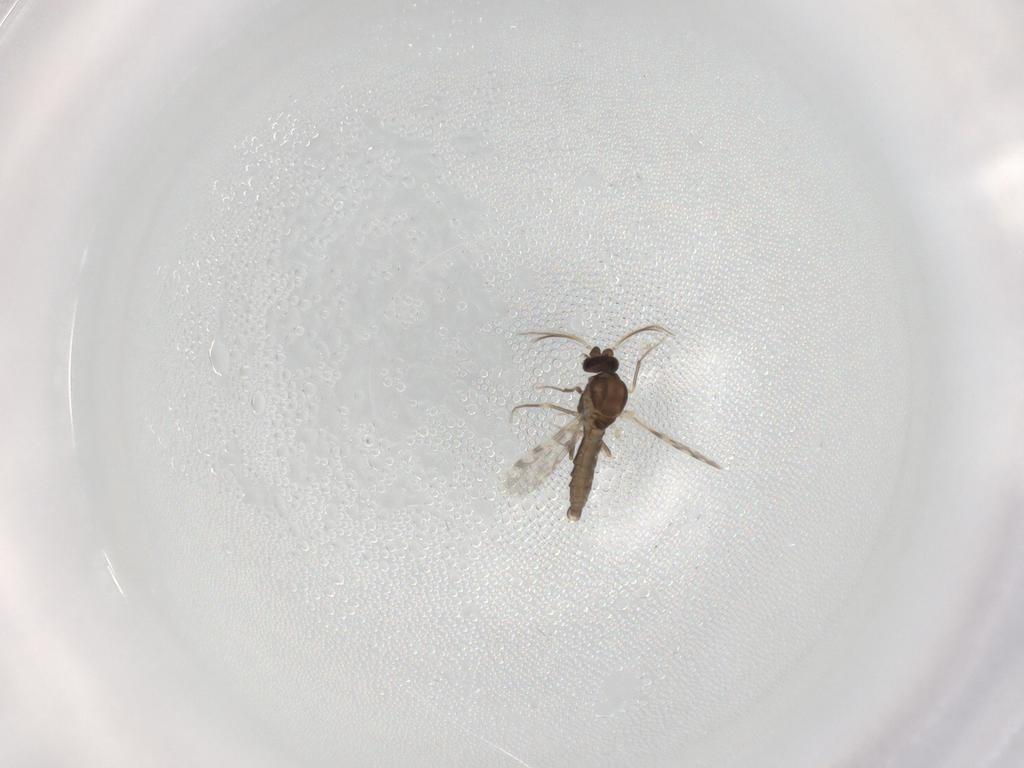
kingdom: Animalia
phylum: Arthropoda
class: Insecta
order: Diptera
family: Ceratopogonidae
